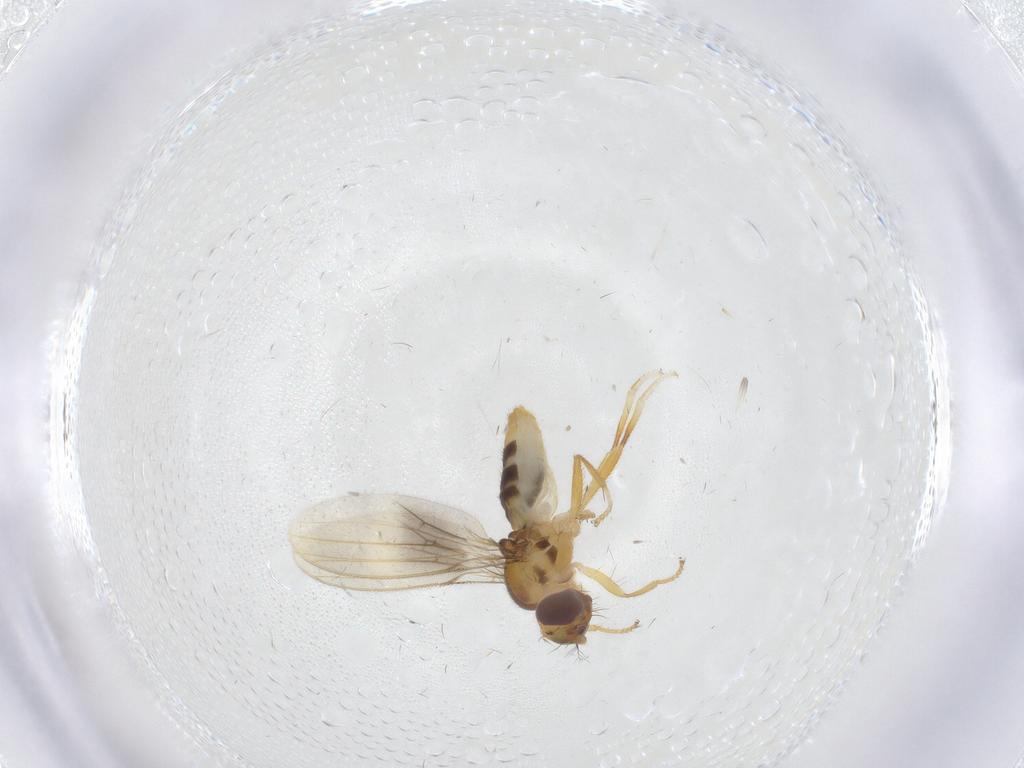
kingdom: Animalia
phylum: Arthropoda
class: Insecta
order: Diptera
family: Periscelididae
